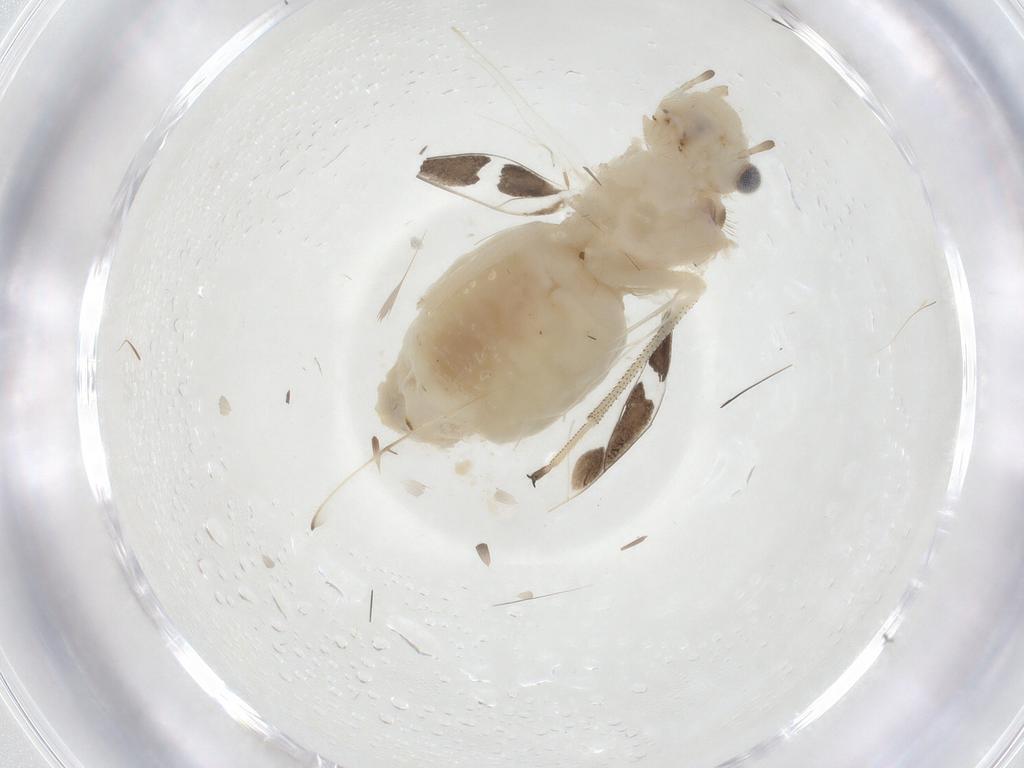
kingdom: Animalia
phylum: Arthropoda
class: Insecta
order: Psocodea
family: Amphipsocidae
